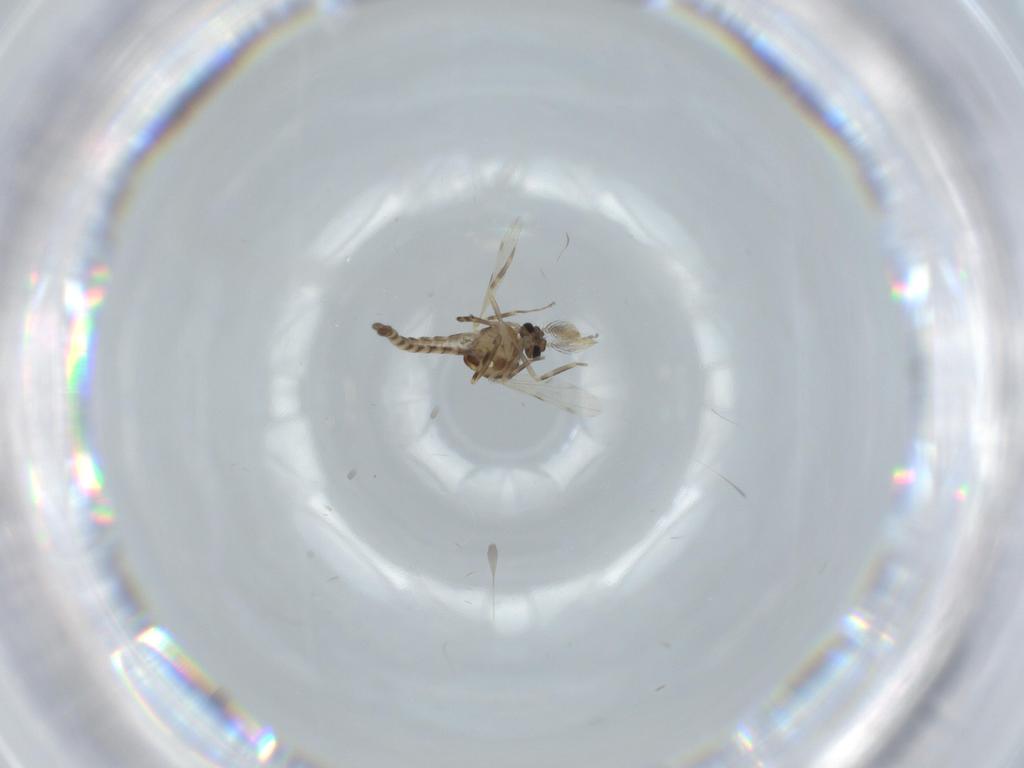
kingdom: Animalia
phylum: Arthropoda
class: Insecta
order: Diptera
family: Ceratopogonidae
